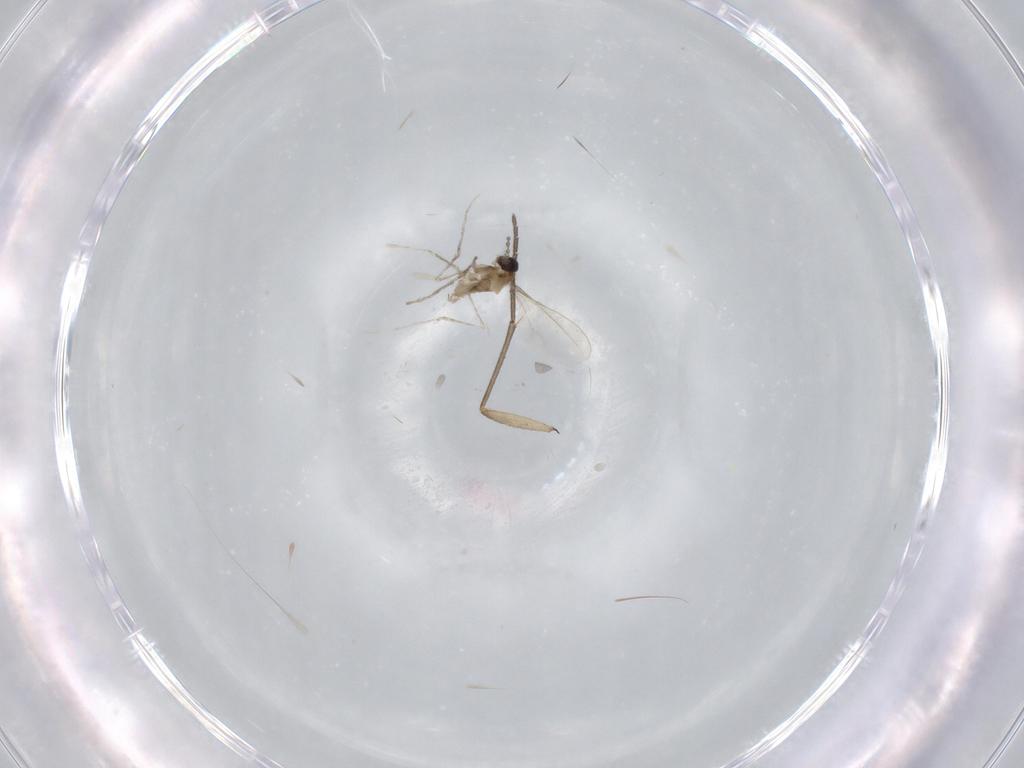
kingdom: Animalia
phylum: Arthropoda
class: Insecta
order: Diptera
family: Cecidomyiidae
